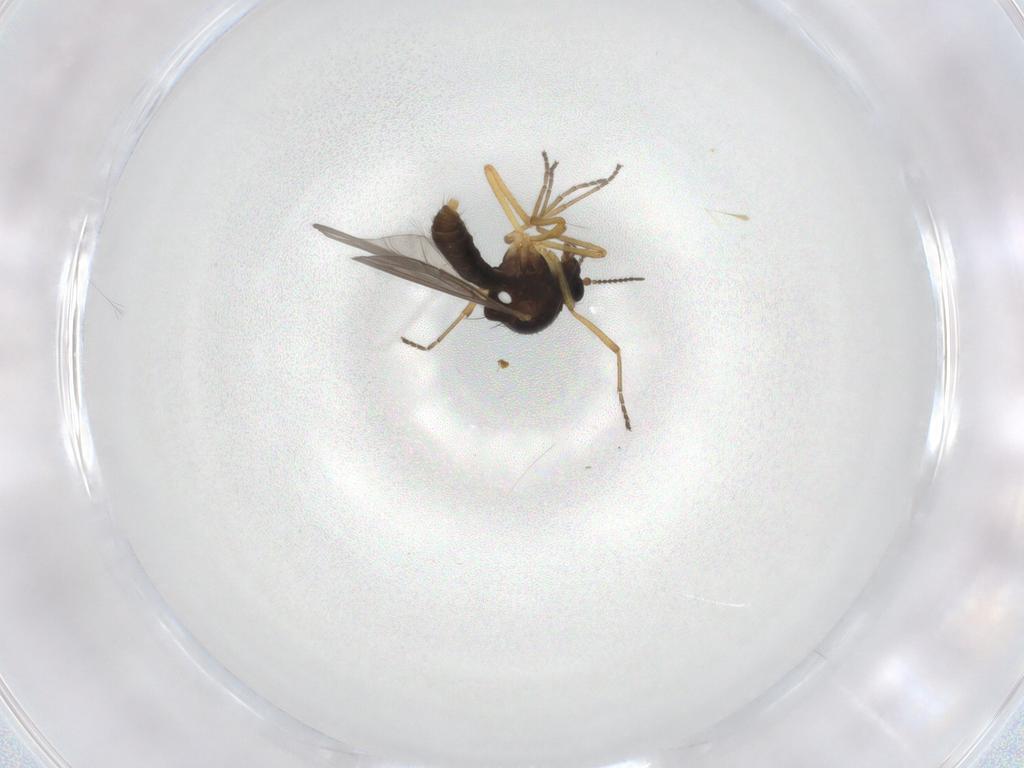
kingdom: Animalia
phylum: Arthropoda
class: Insecta
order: Diptera
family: Ceratopogonidae
